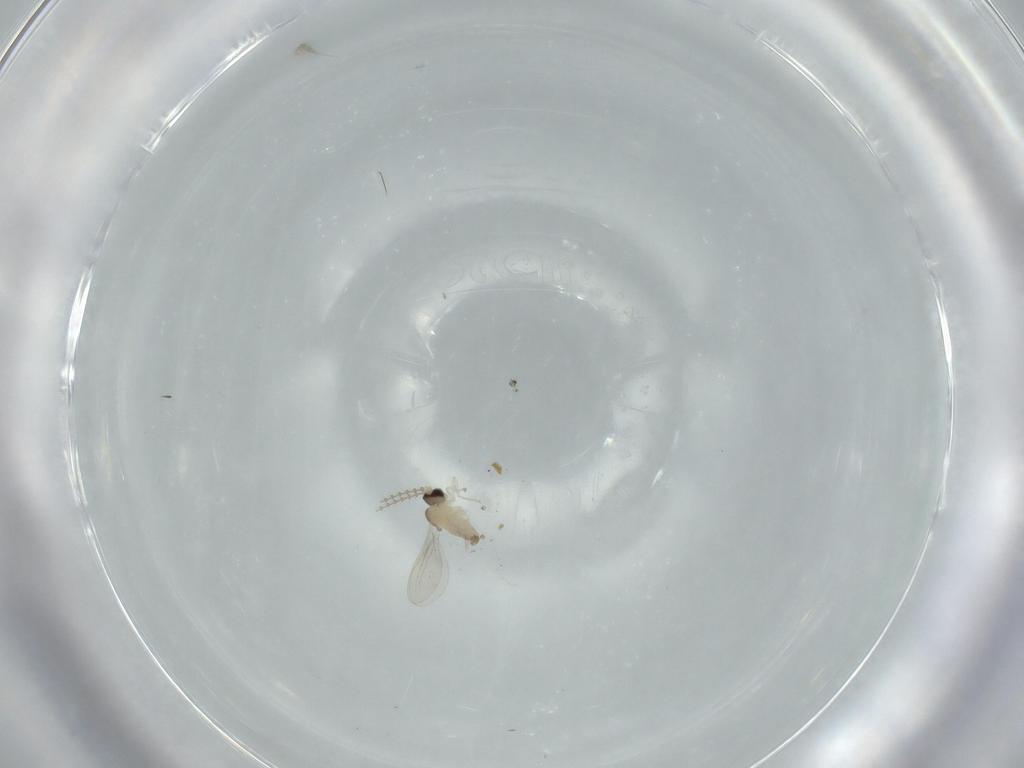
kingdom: Animalia
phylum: Arthropoda
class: Insecta
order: Diptera
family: Cecidomyiidae
